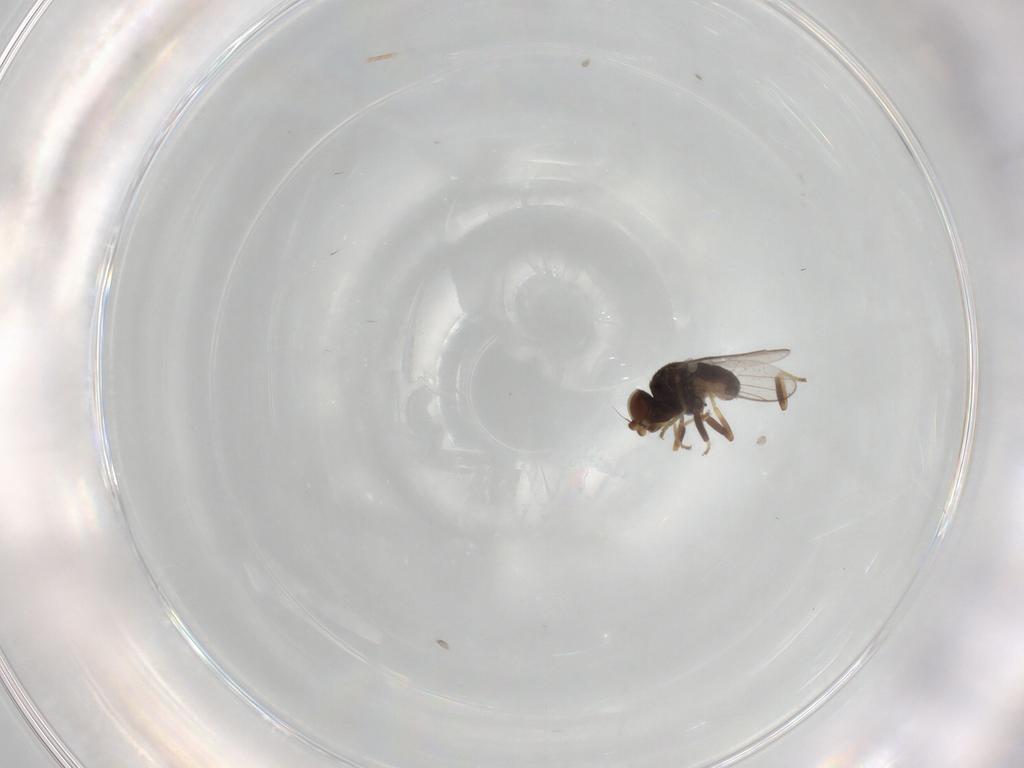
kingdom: Animalia
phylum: Arthropoda
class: Insecta
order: Diptera
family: Chloropidae
